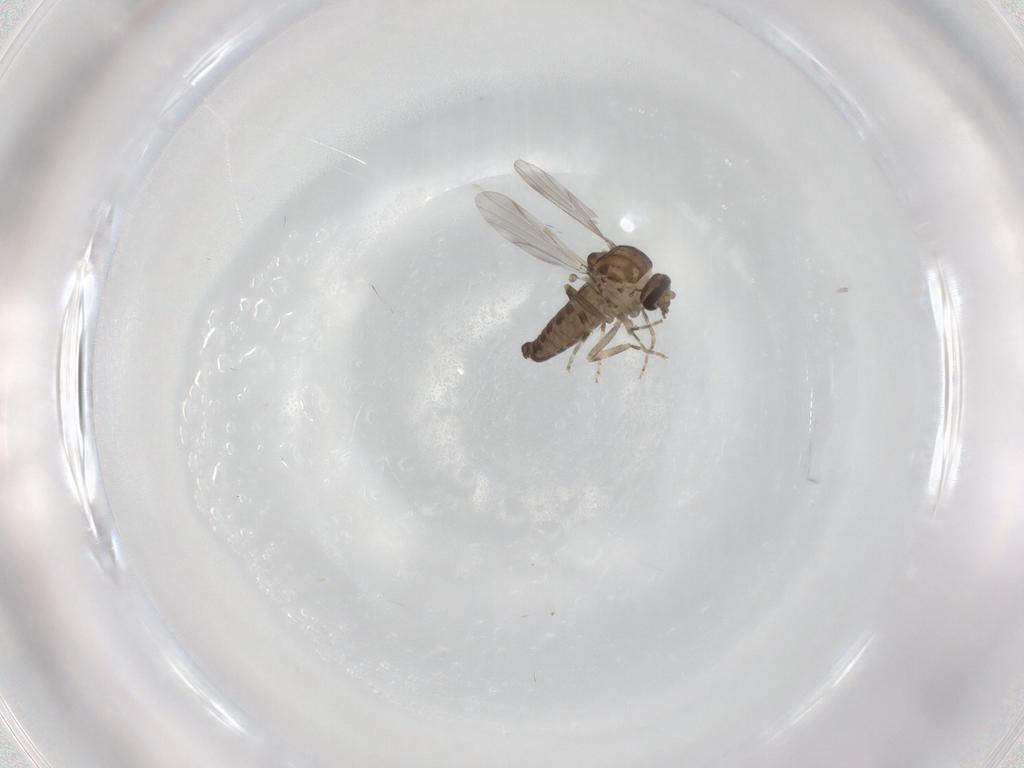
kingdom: Animalia
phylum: Arthropoda
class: Insecta
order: Diptera
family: Ceratopogonidae
